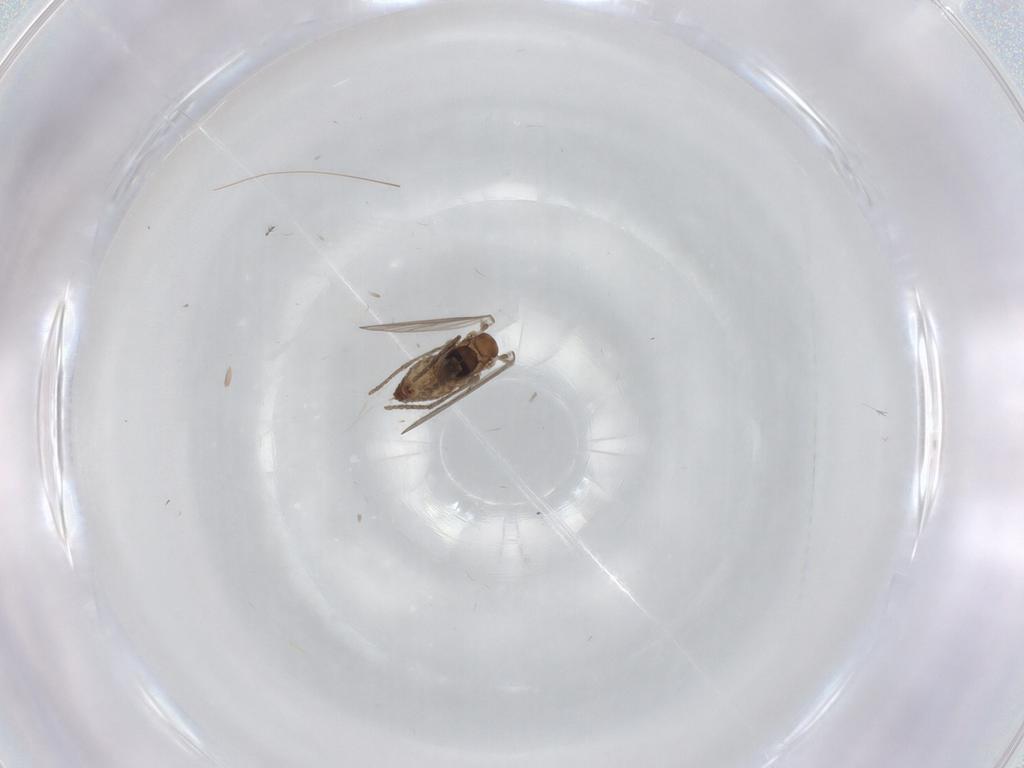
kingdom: Animalia
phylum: Arthropoda
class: Insecta
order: Diptera
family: Psychodidae
